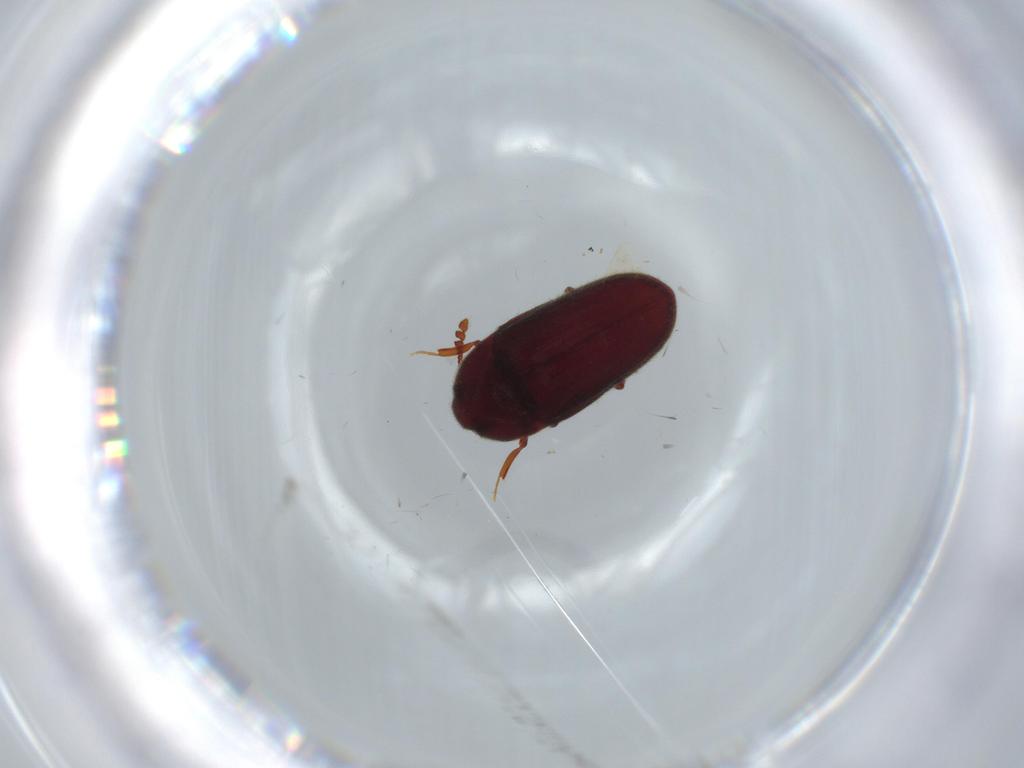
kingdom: Animalia
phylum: Arthropoda
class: Insecta
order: Coleoptera
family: Throscidae
